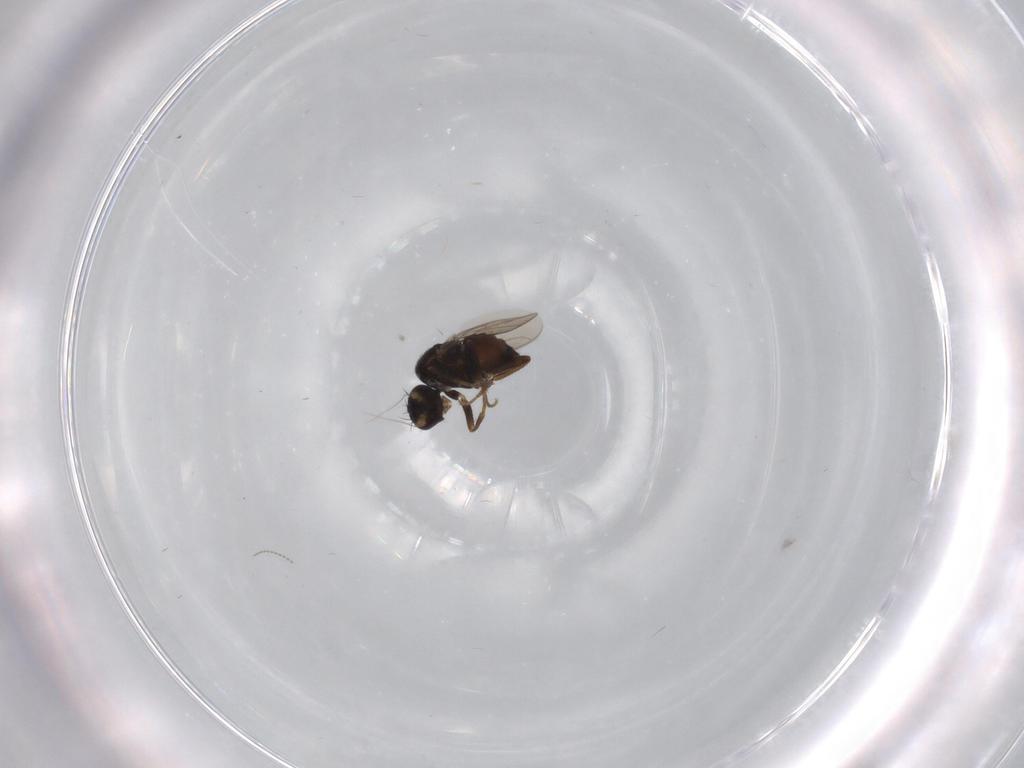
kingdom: Animalia
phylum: Arthropoda
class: Insecta
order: Diptera
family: Sphaeroceridae
